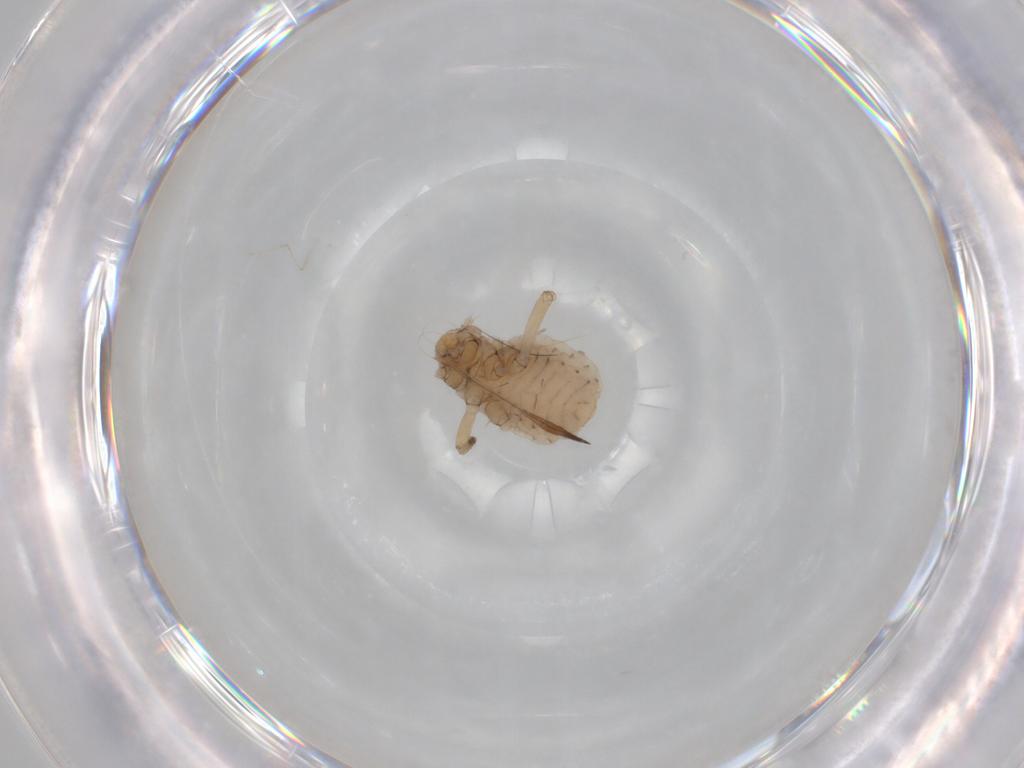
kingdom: Animalia
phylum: Arthropoda
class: Insecta
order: Hemiptera
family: Aphididae
